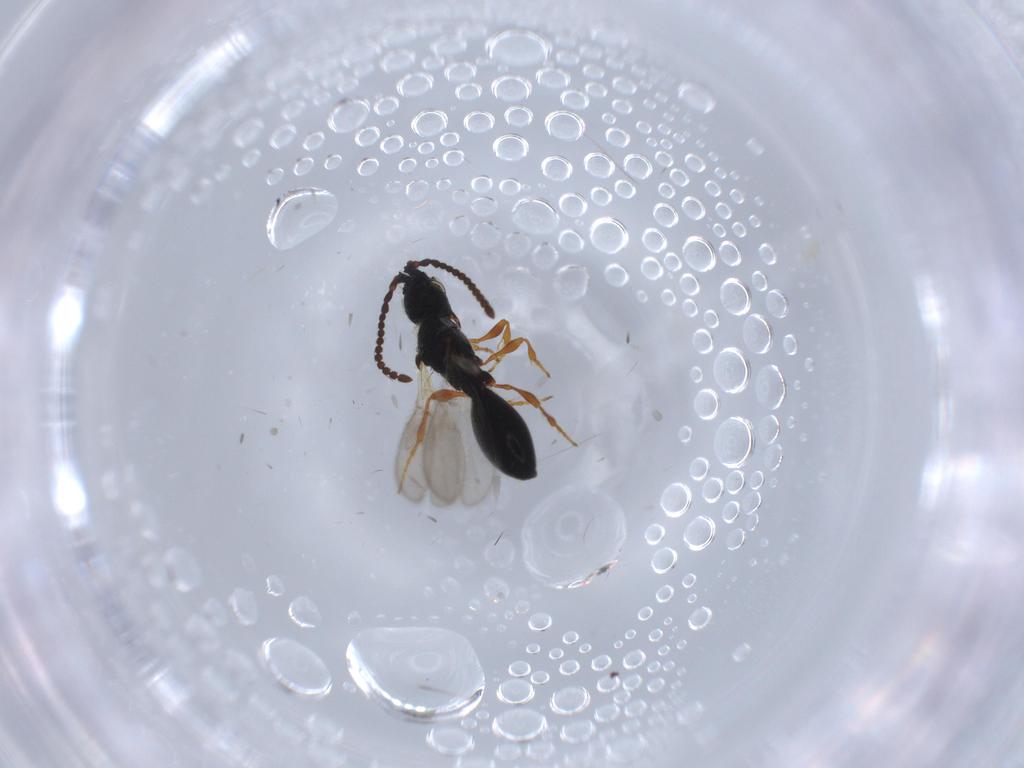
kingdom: Animalia
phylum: Arthropoda
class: Insecta
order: Hymenoptera
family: Diapriidae
